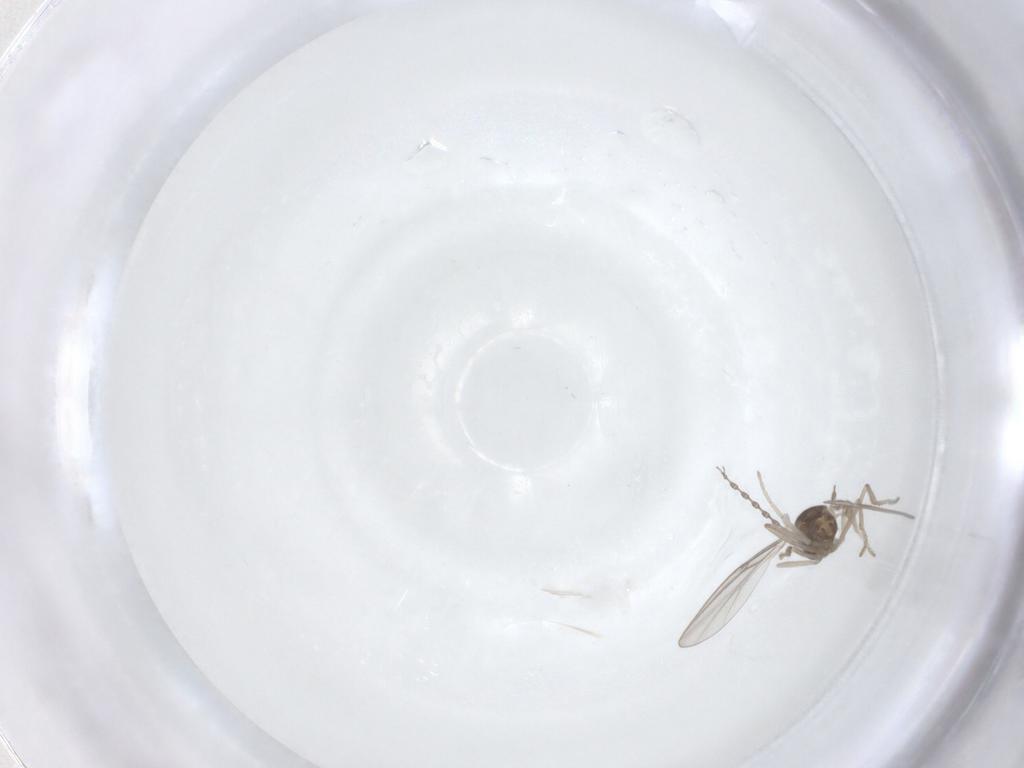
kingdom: Animalia
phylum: Arthropoda
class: Insecta
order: Diptera
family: Cecidomyiidae
